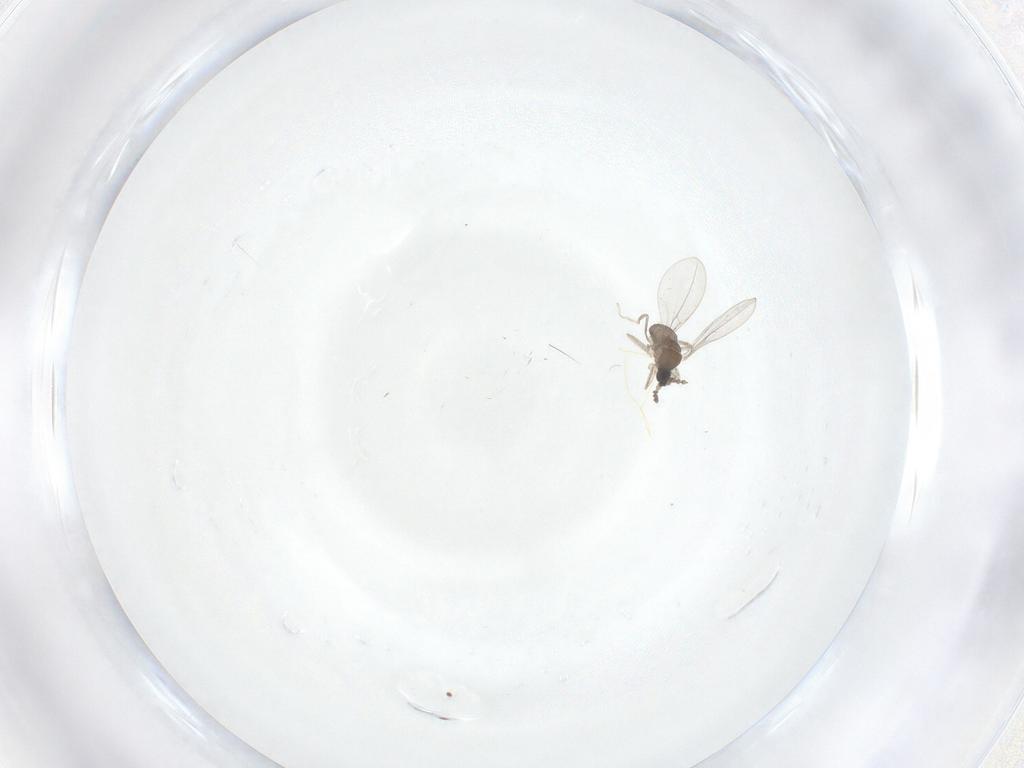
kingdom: Animalia
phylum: Arthropoda
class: Insecta
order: Diptera
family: Cecidomyiidae
